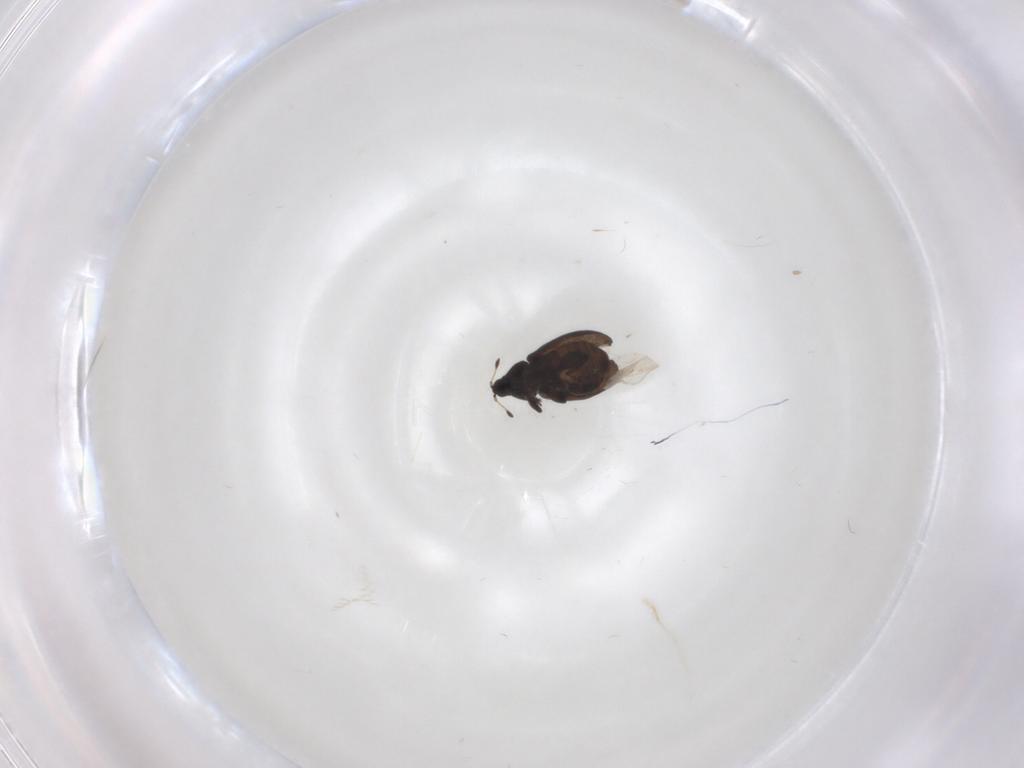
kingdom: Animalia
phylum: Arthropoda
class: Insecta
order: Coleoptera
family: Curculionidae
